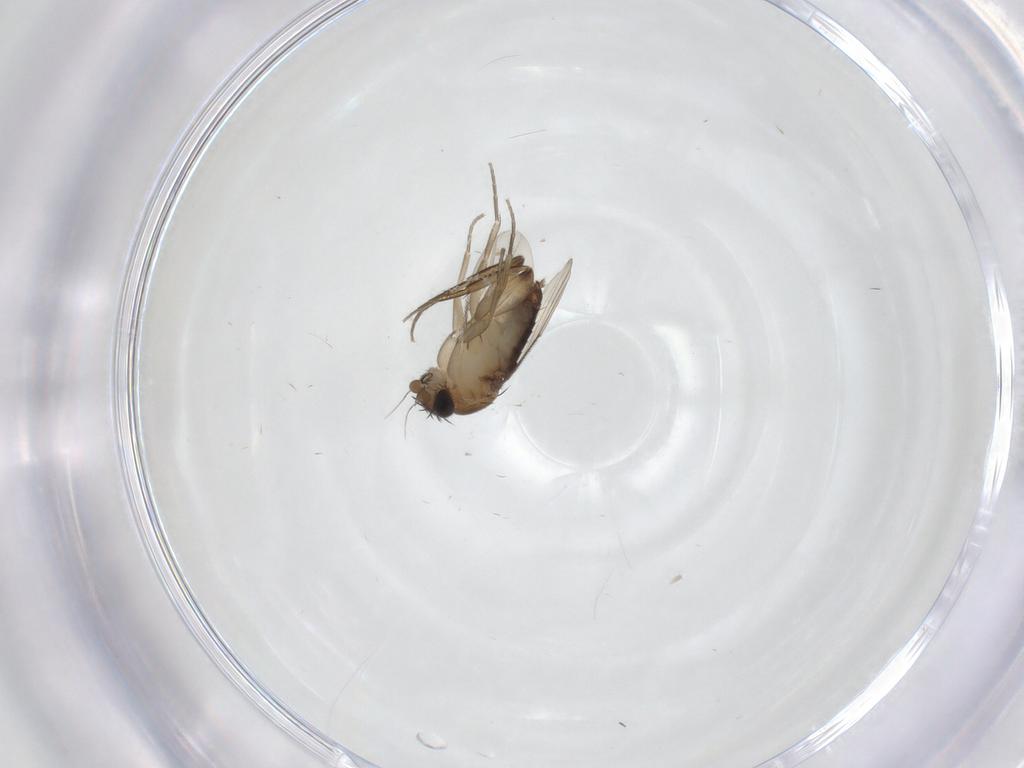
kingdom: Animalia
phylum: Arthropoda
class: Insecta
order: Diptera
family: Phoridae
